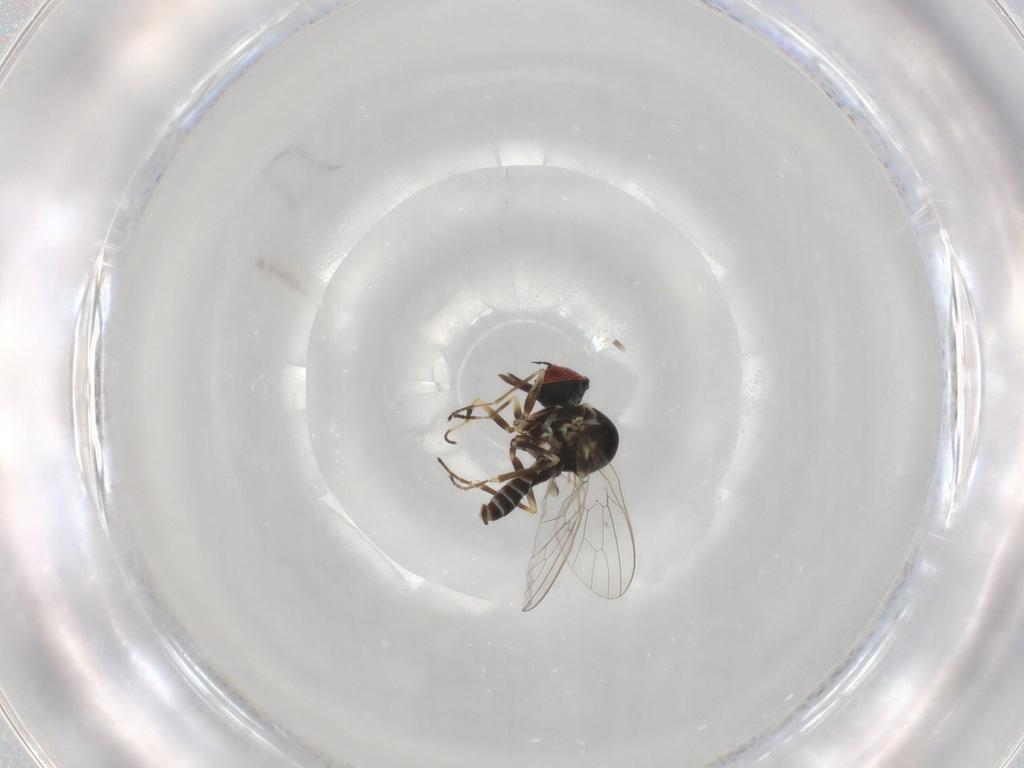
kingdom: Animalia
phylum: Arthropoda
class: Insecta
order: Diptera
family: Bombyliidae
